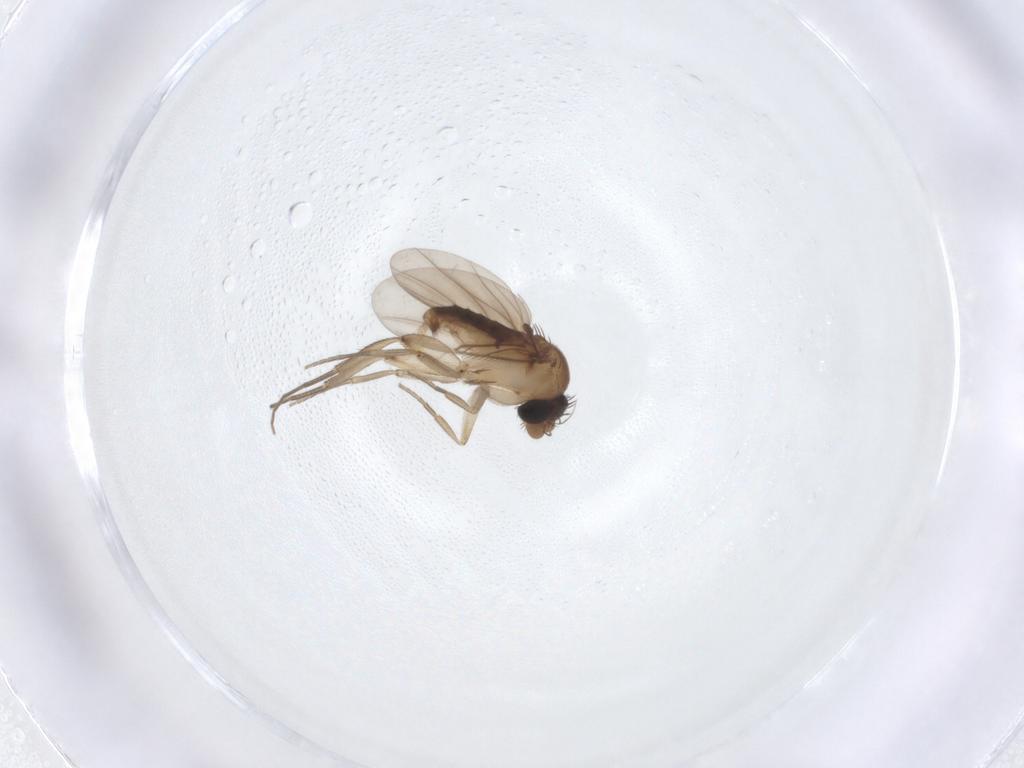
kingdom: Animalia
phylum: Arthropoda
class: Insecta
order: Diptera
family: Phoridae
